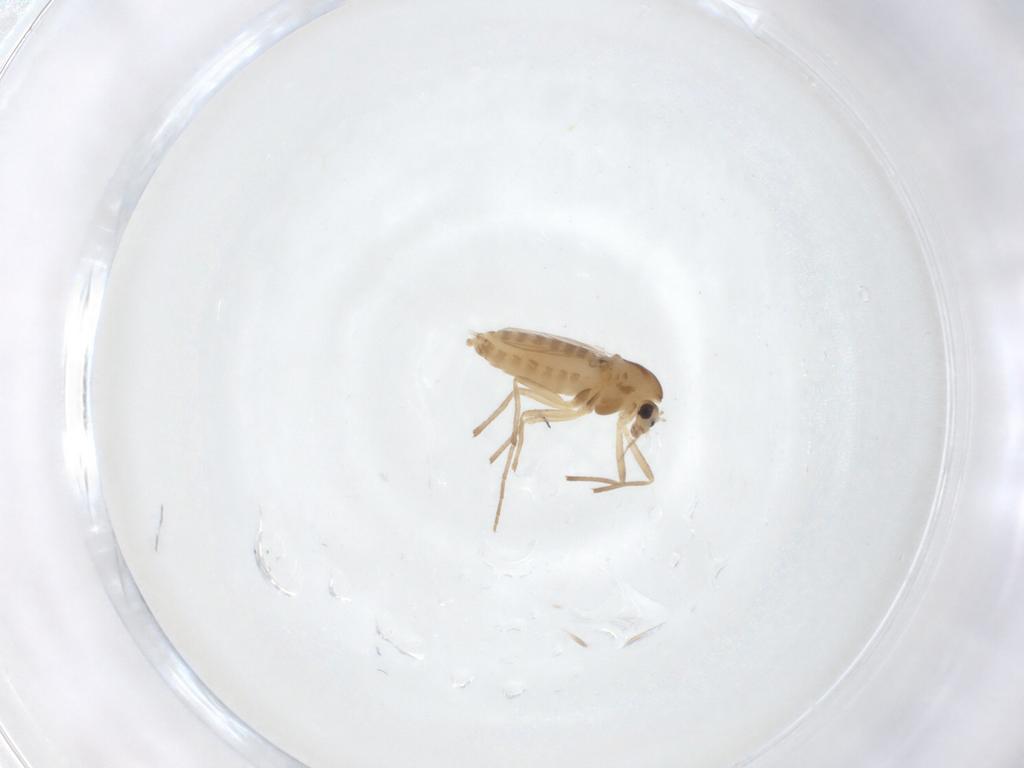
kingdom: Animalia
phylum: Arthropoda
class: Insecta
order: Diptera
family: Chironomidae
